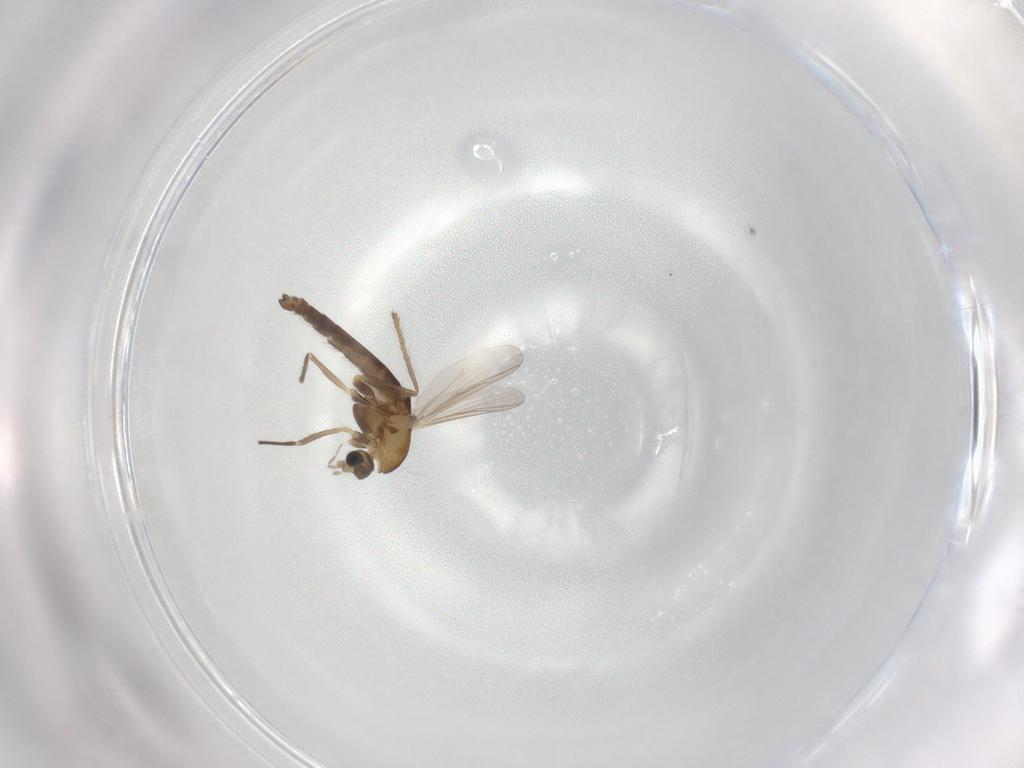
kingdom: Animalia
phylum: Arthropoda
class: Insecta
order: Diptera
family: Chironomidae
